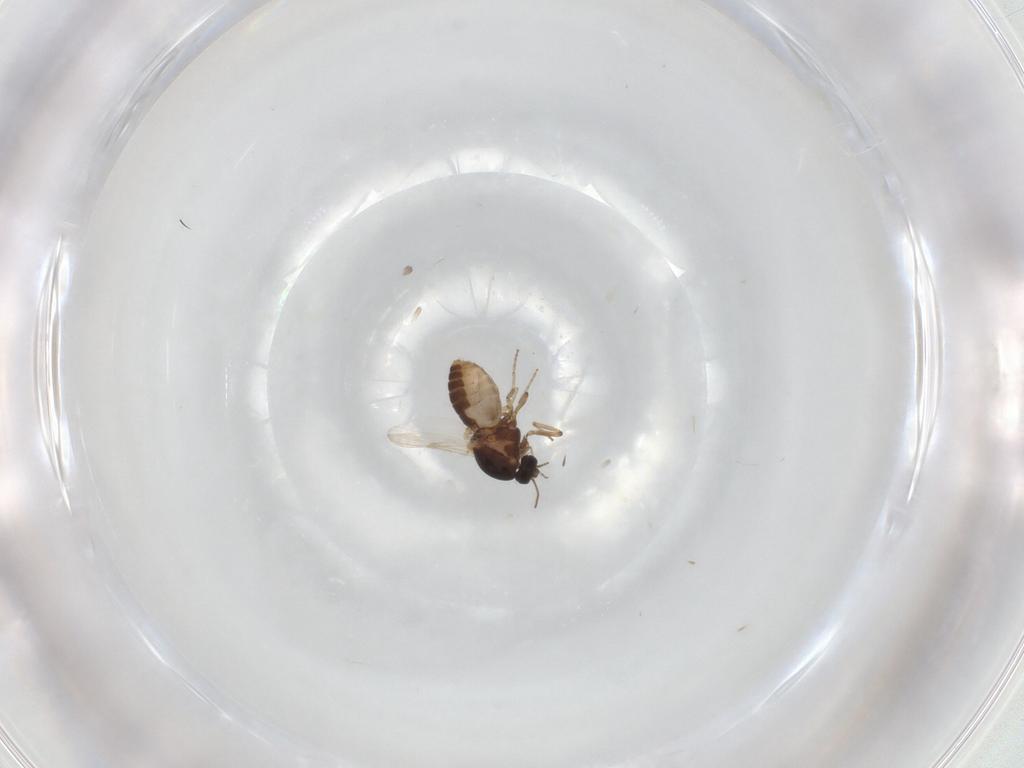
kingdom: Animalia
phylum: Arthropoda
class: Insecta
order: Diptera
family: Ceratopogonidae
